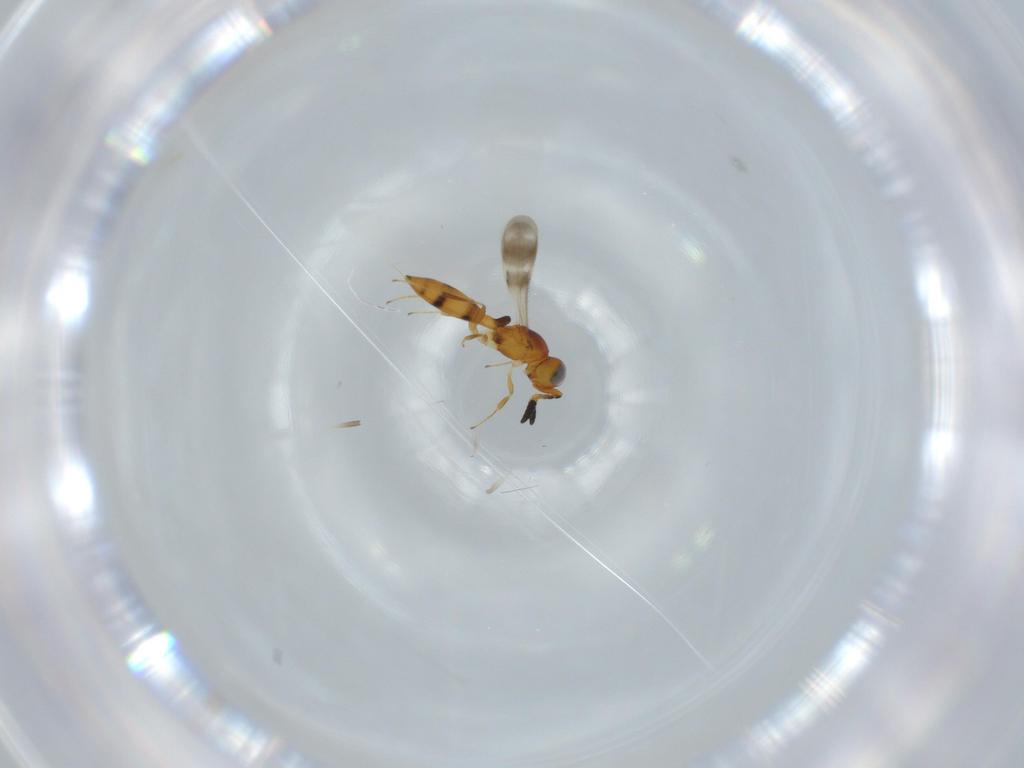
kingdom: Animalia
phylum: Arthropoda
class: Insecta
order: Hymenoptera
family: Scelionidae
